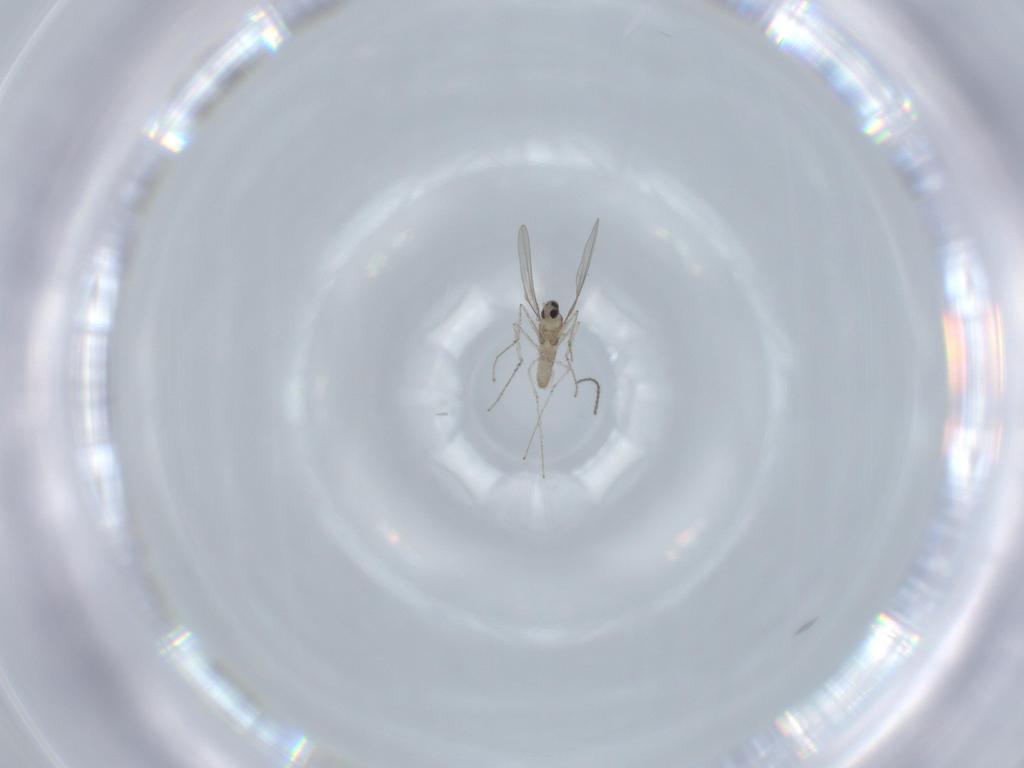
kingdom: Animalia
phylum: Arthropoda
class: Insecta
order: Diptera
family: Cecidomyiidae
